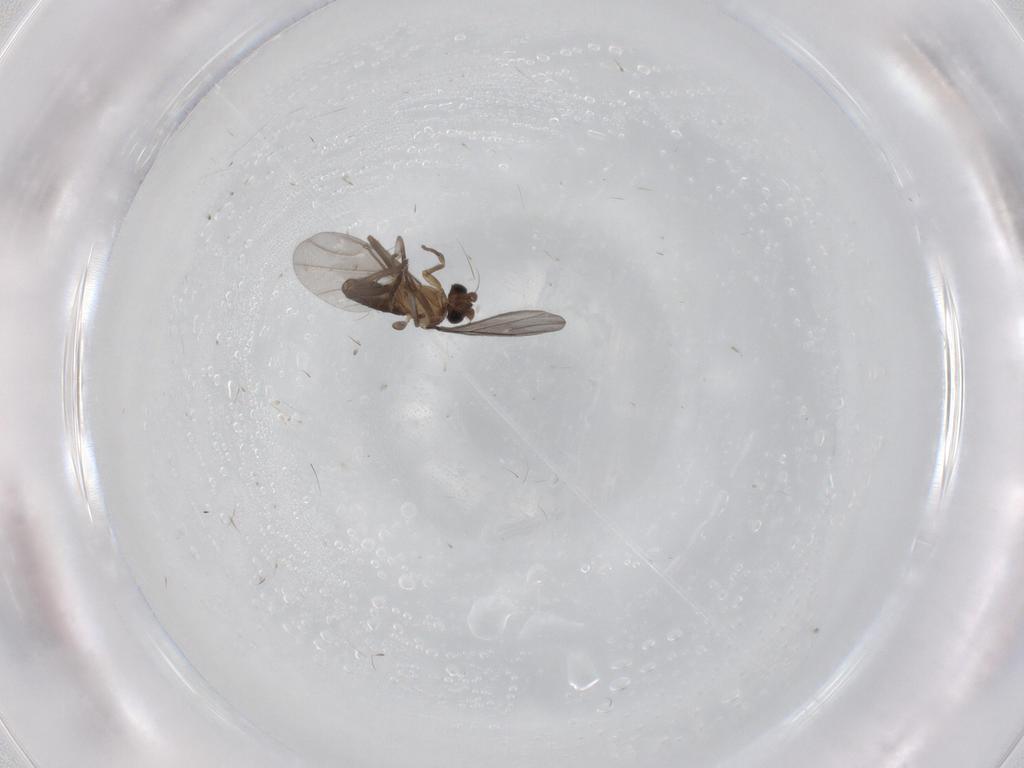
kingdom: Animalia
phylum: Arthropoda
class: Insecta
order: Diptera
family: Phoridae
